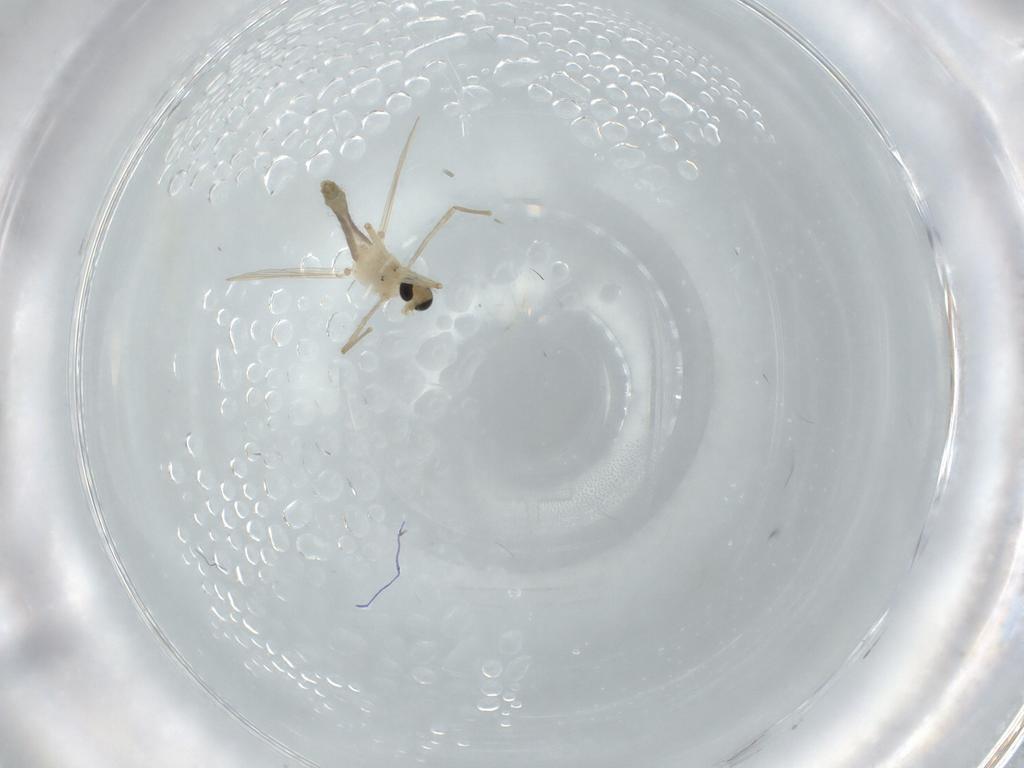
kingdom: Animalia
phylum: Arthropoda
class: Insecta
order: Diptera
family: Chironomidae
